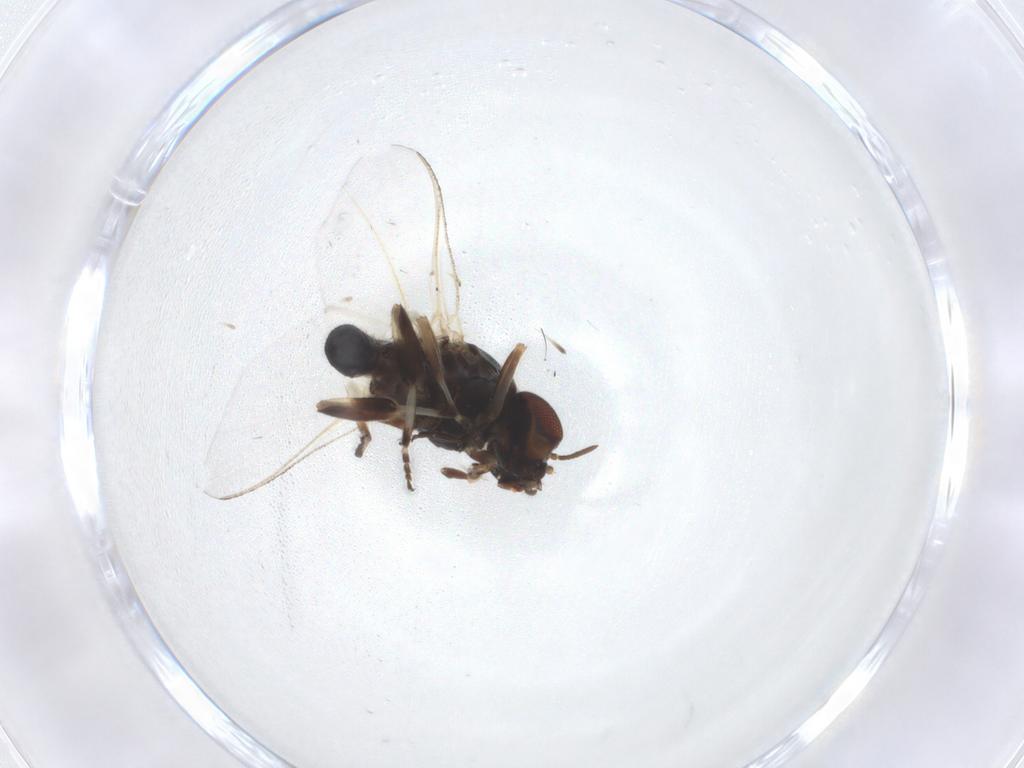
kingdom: Animalia
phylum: Arthropoda
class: Insecta
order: Diptera
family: Simuliidae
